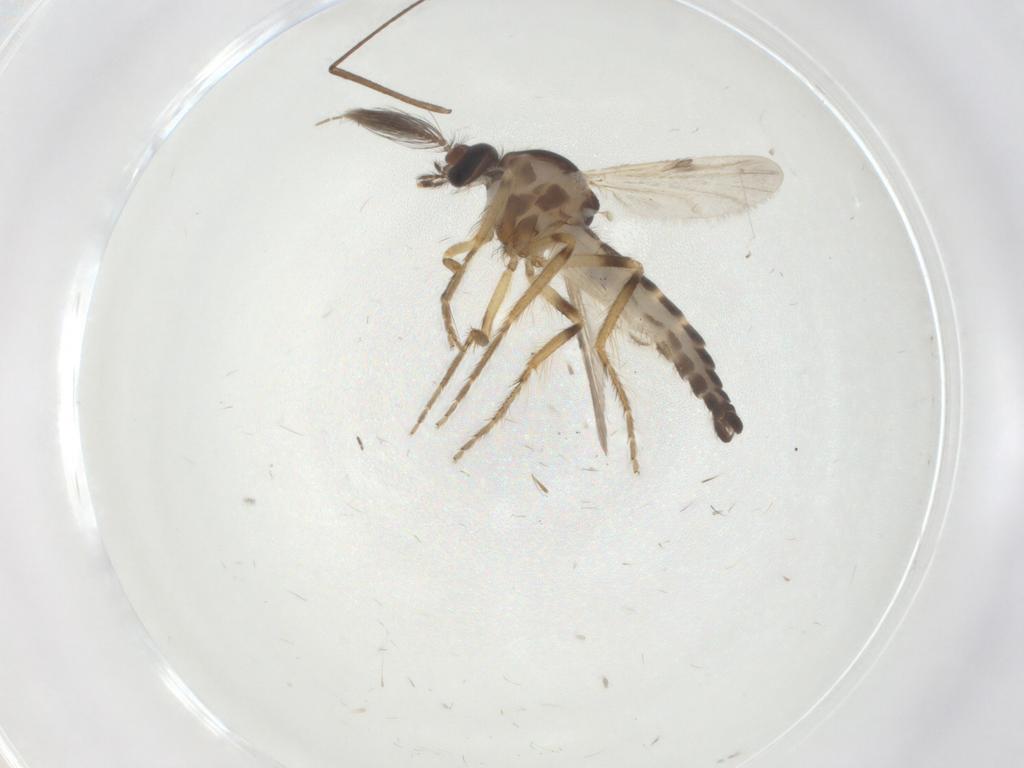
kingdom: Animalia
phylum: Arthropoda
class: Insecta
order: Diptera
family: Ceratopogonidae
